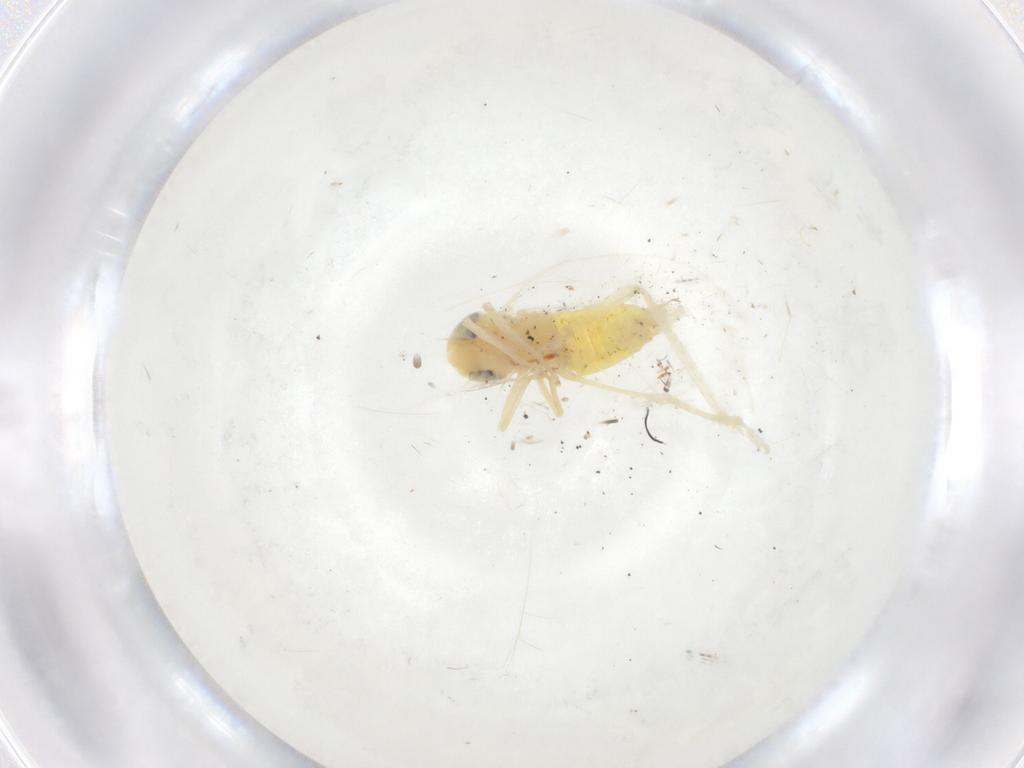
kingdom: Animalia
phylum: Arthropoda
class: Insecta
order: Hemiptera
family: Cicadellidae
